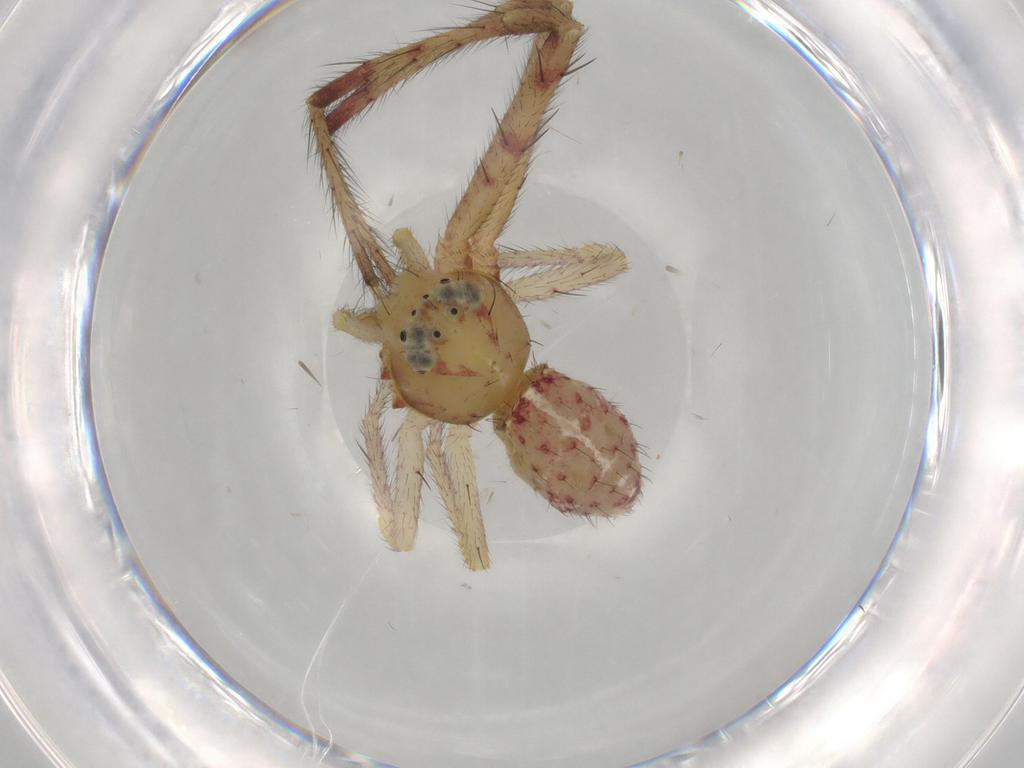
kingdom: Animalia
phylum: Arthropoda
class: Arachnida
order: Araneae
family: Thomisidae
